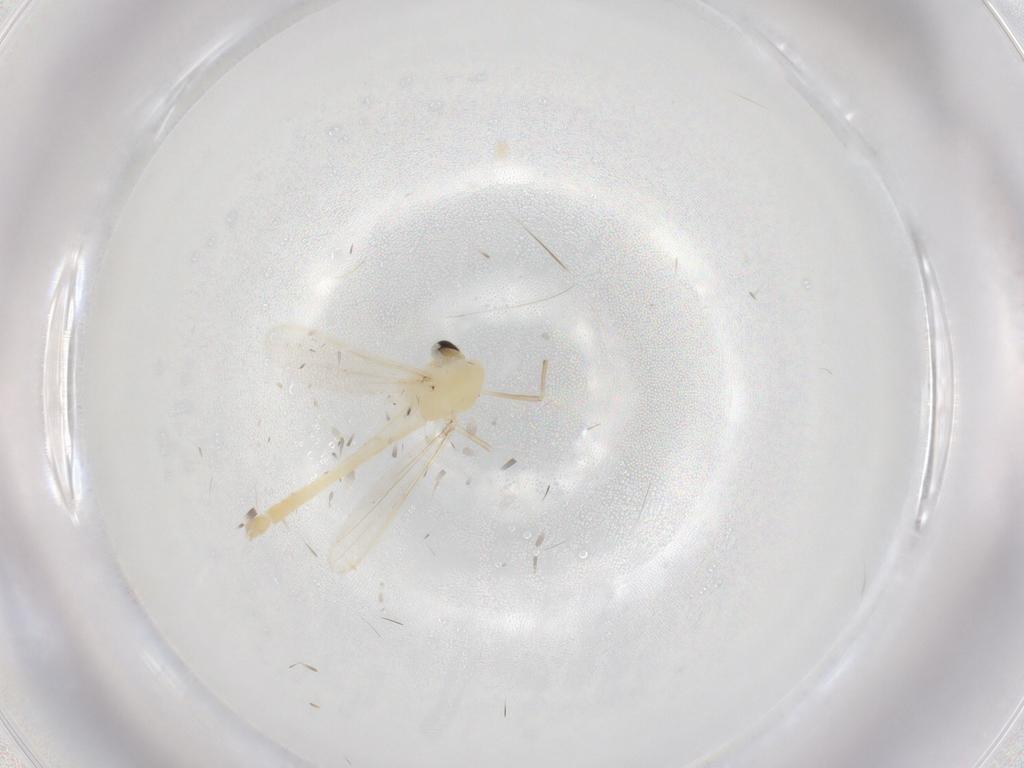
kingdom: Animalia
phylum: Arthropoda
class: Insecta
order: Diptera
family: Chironomidae
